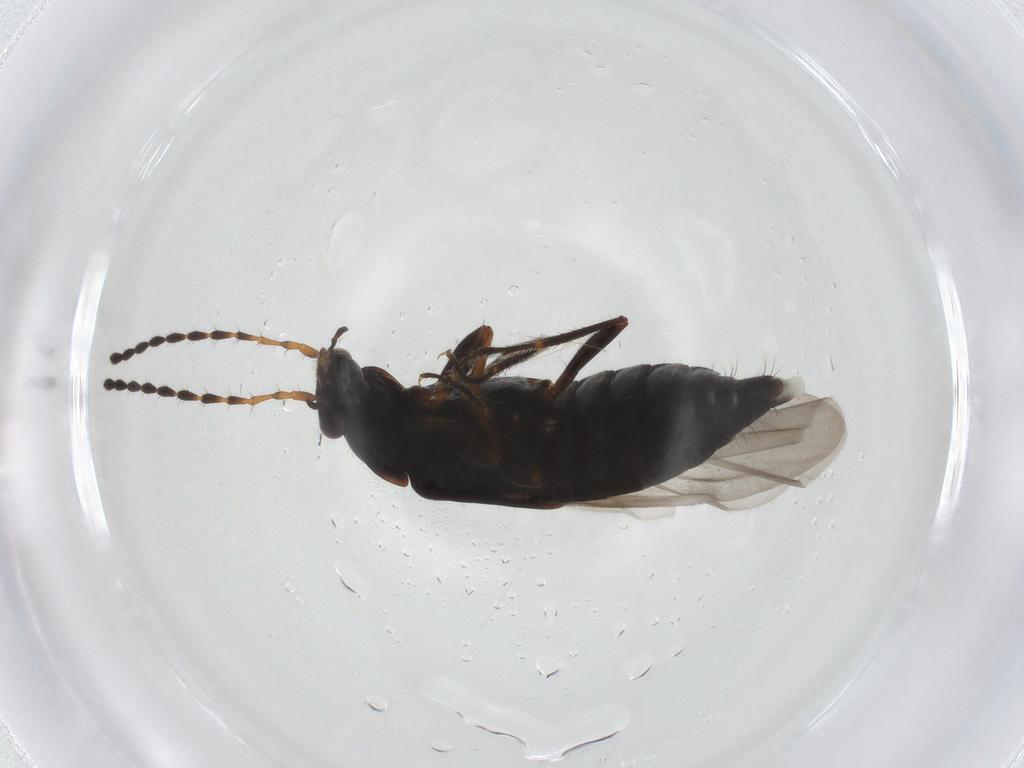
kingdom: Animalia
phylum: Arthropoda
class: Insecta
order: Coleoptera
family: Staphylinidae
